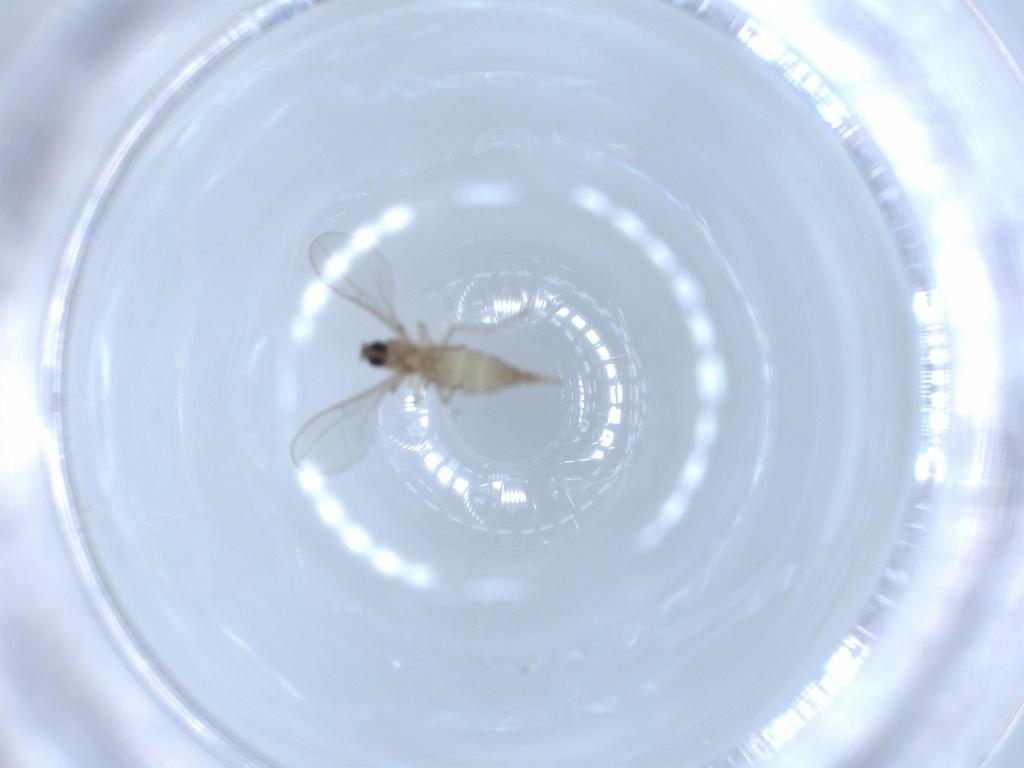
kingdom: Animalia
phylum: Arthropoda
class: Insecta
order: Diptera
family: Cecidomyiidae
